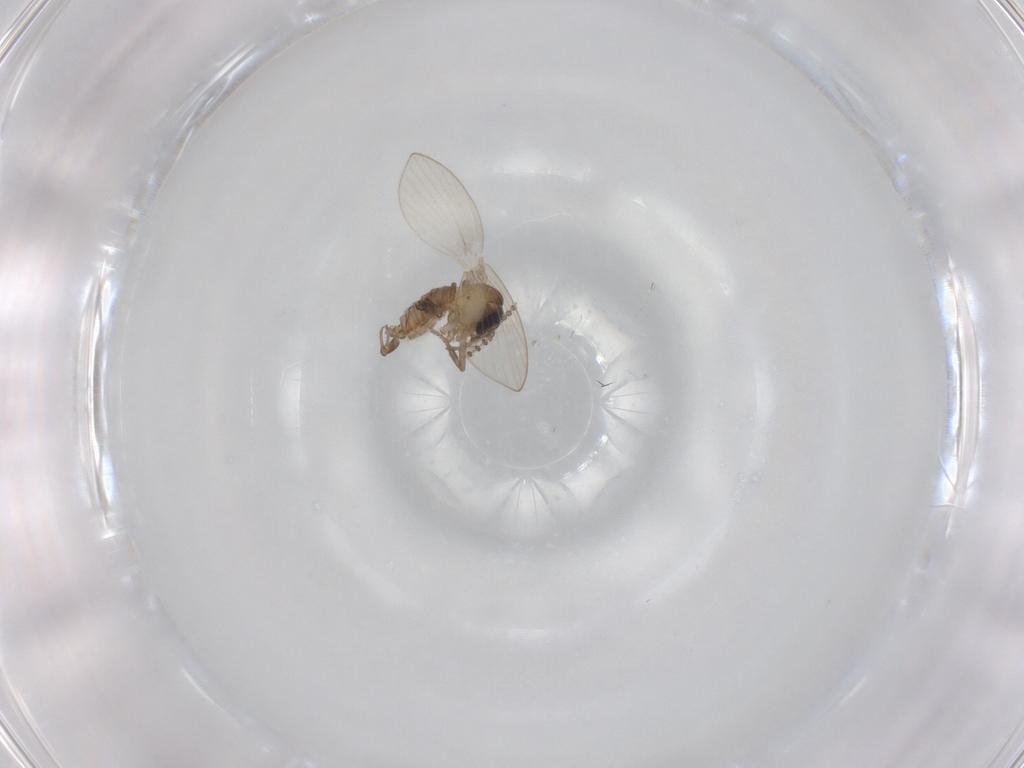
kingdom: Animalia
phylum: Arthropoda
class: Insecta
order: Diptera
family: Psychodidae
